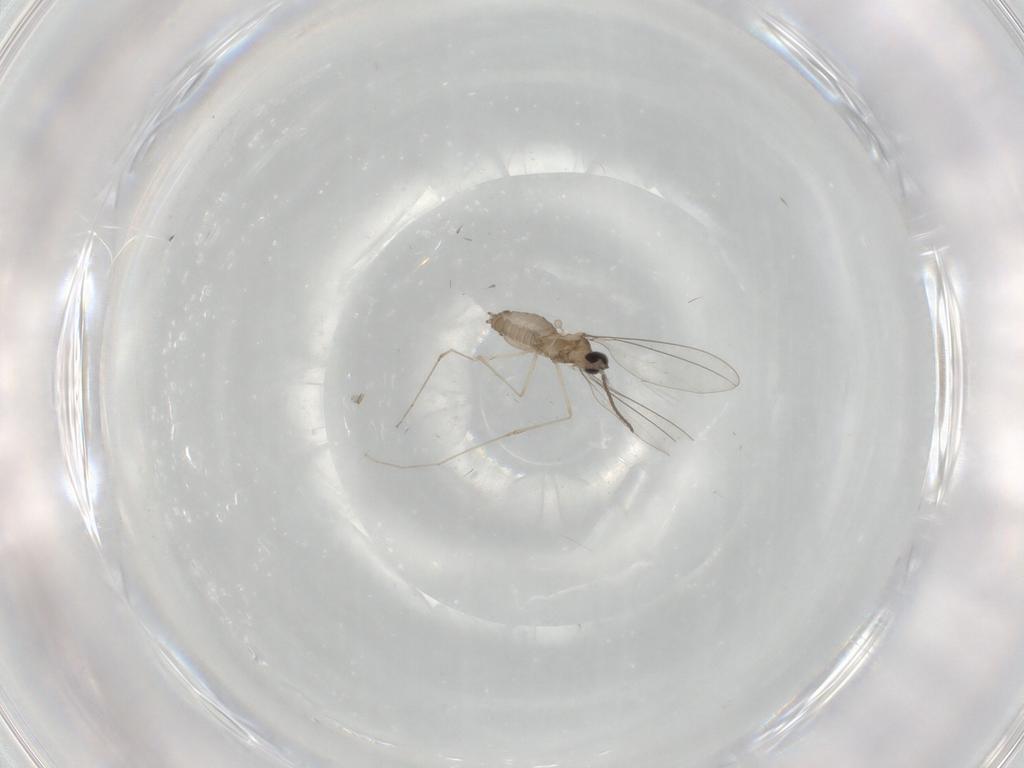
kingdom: Animalia
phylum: Arthropoda
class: Insecta
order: Diptera
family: Cecidomyiidae
